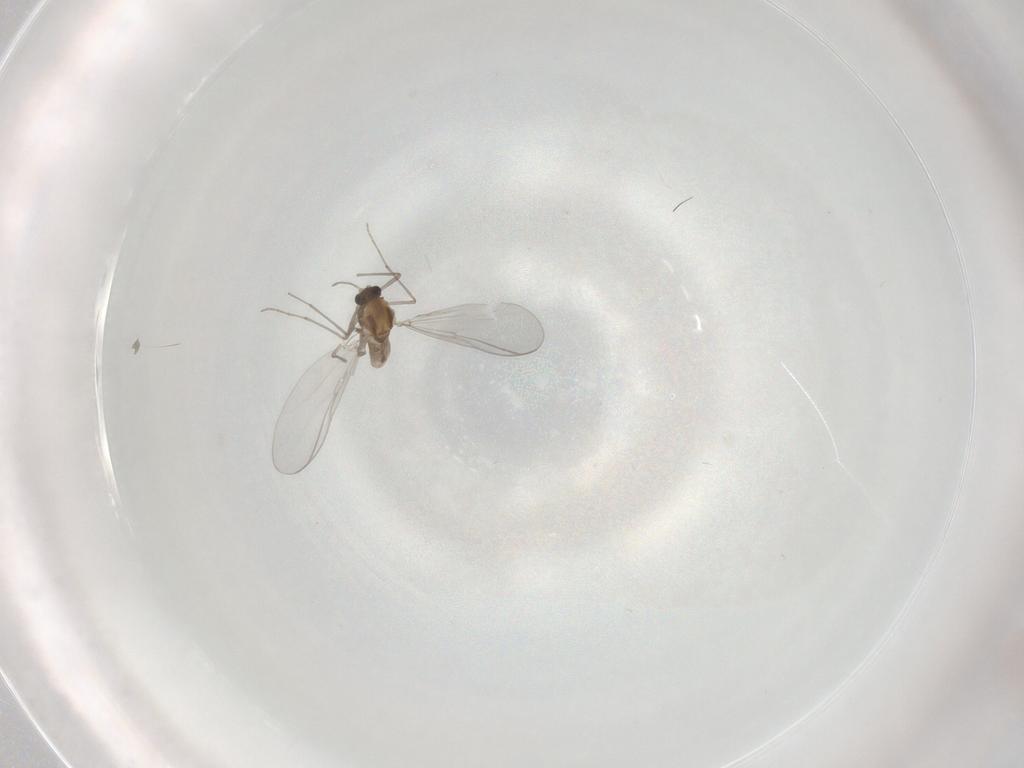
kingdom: Animalia
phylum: Arthropoda
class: Insecta
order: Diptera
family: Chironomidae
